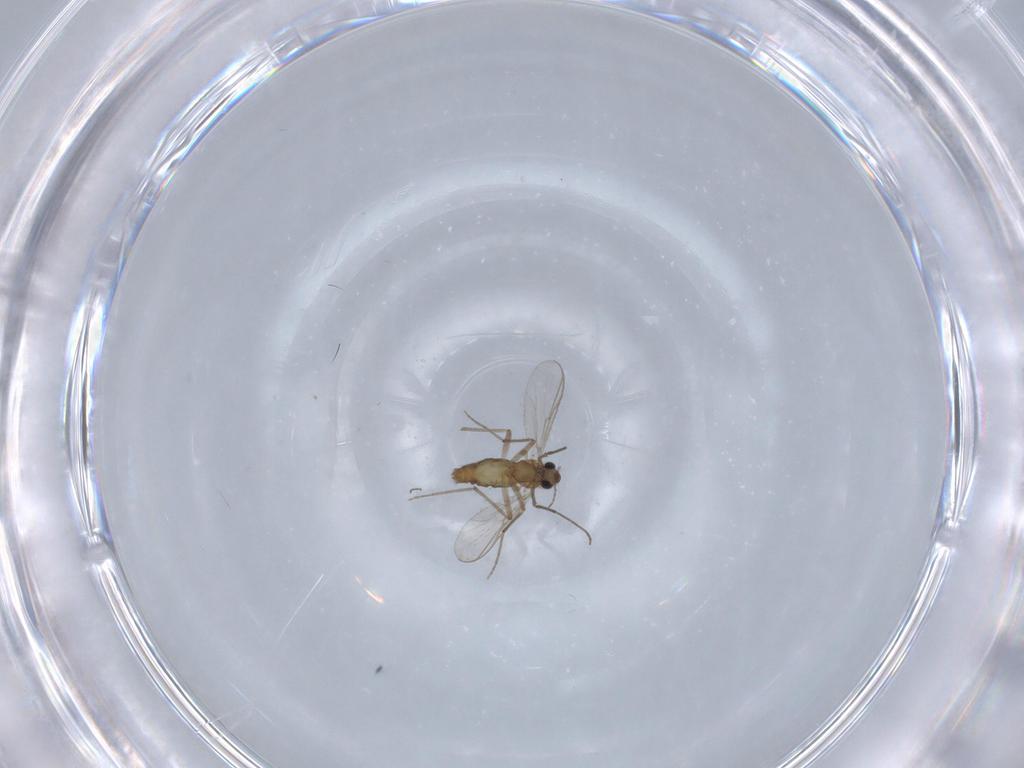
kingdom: Animalia
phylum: Arthropoda
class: Insecta
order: Diptera
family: Chironomidae
